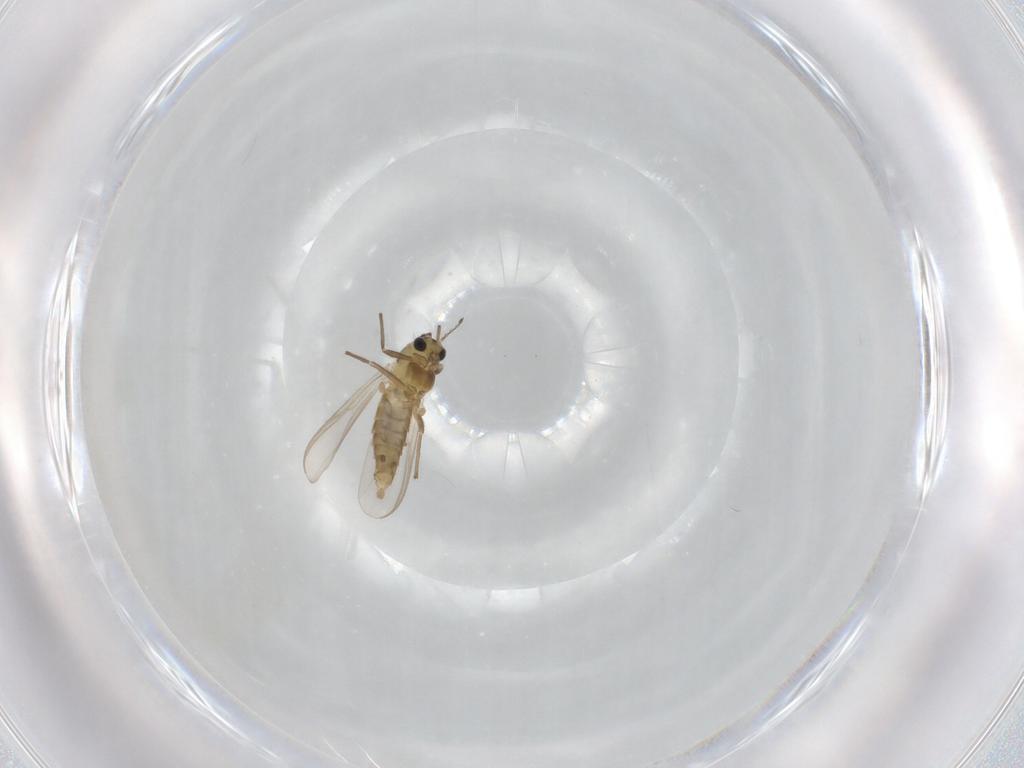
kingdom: Animalia
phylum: Arthropoda
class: Insecta
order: Diptera
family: Chironomidae
